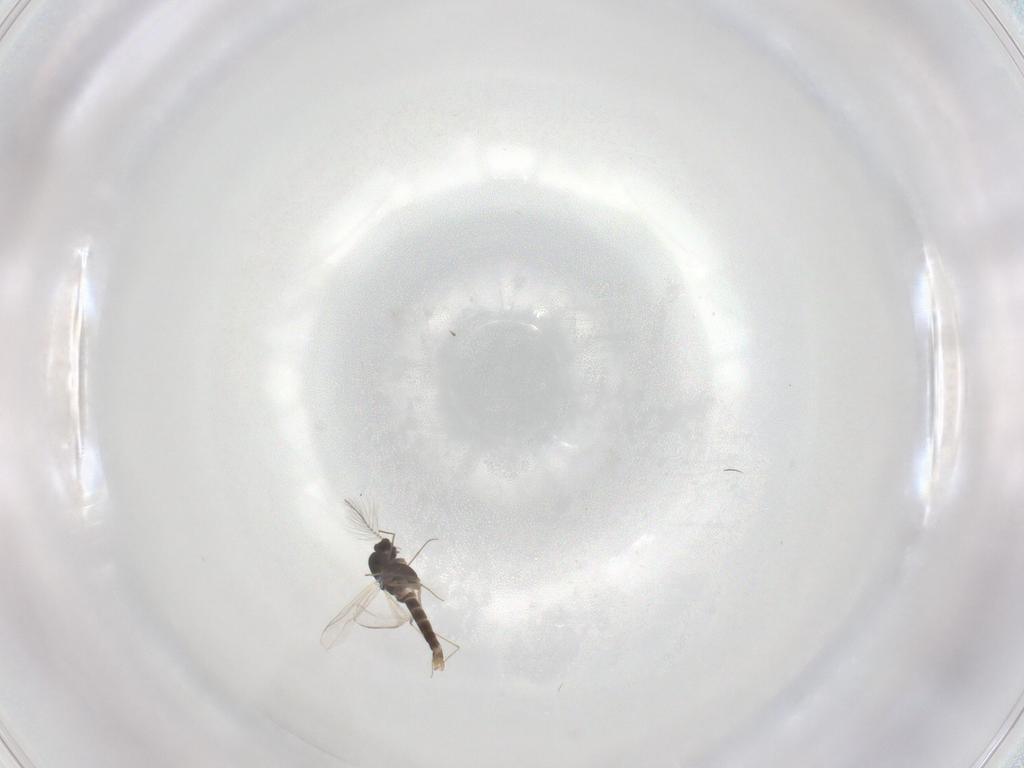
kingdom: Animalia
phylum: Arthropoda
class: Insecta
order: Diptera
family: Chironomidae
